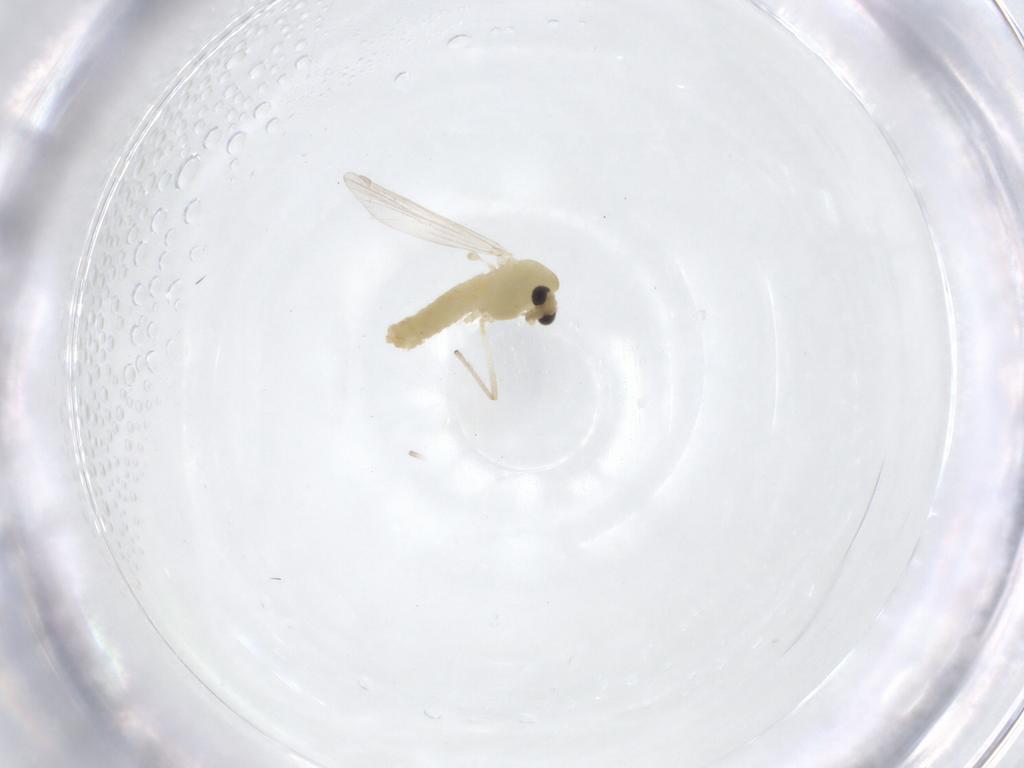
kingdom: Animalia
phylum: Arthropoda
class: Insecta
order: Diptera
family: Chironomidae
